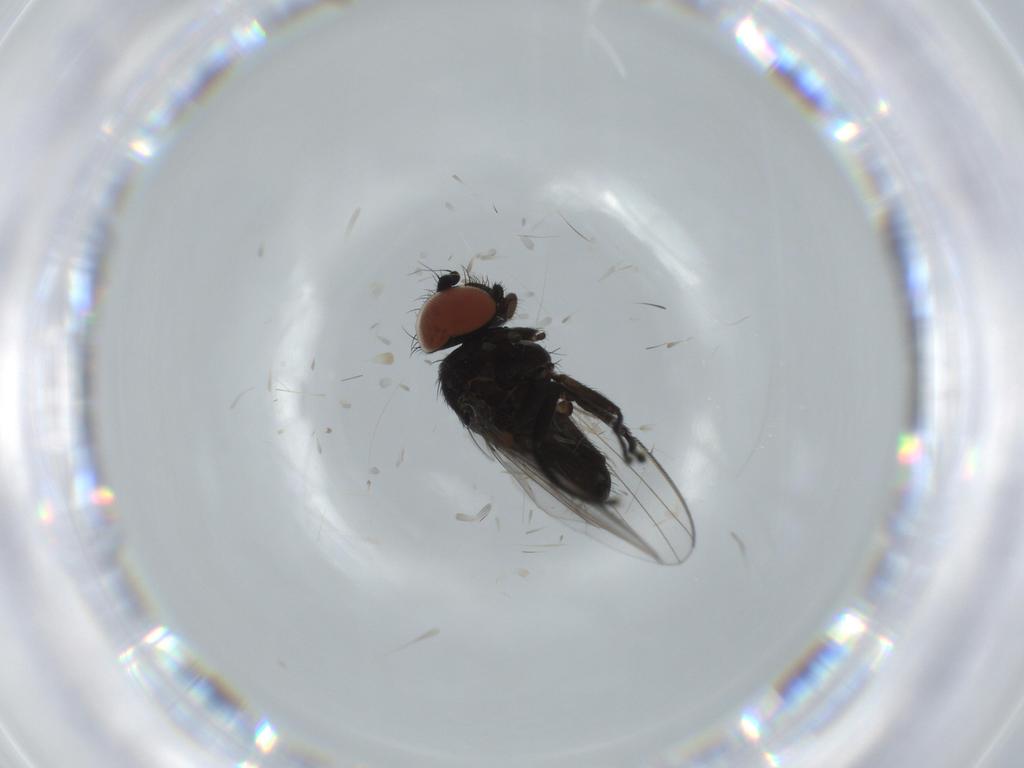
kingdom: Animalia
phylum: Arthropoda
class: Insecta
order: Diptera
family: Milichiidae
